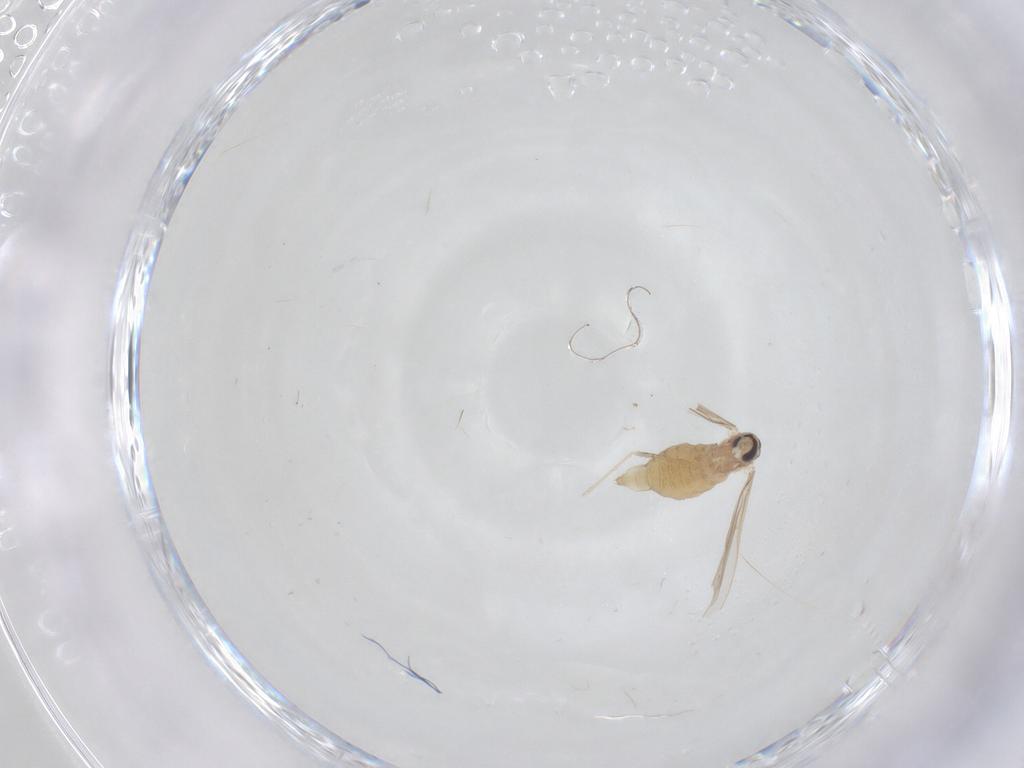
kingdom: Animalia
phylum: Arthropoda
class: Insecta
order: Diptera
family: Cecidomyiidae
